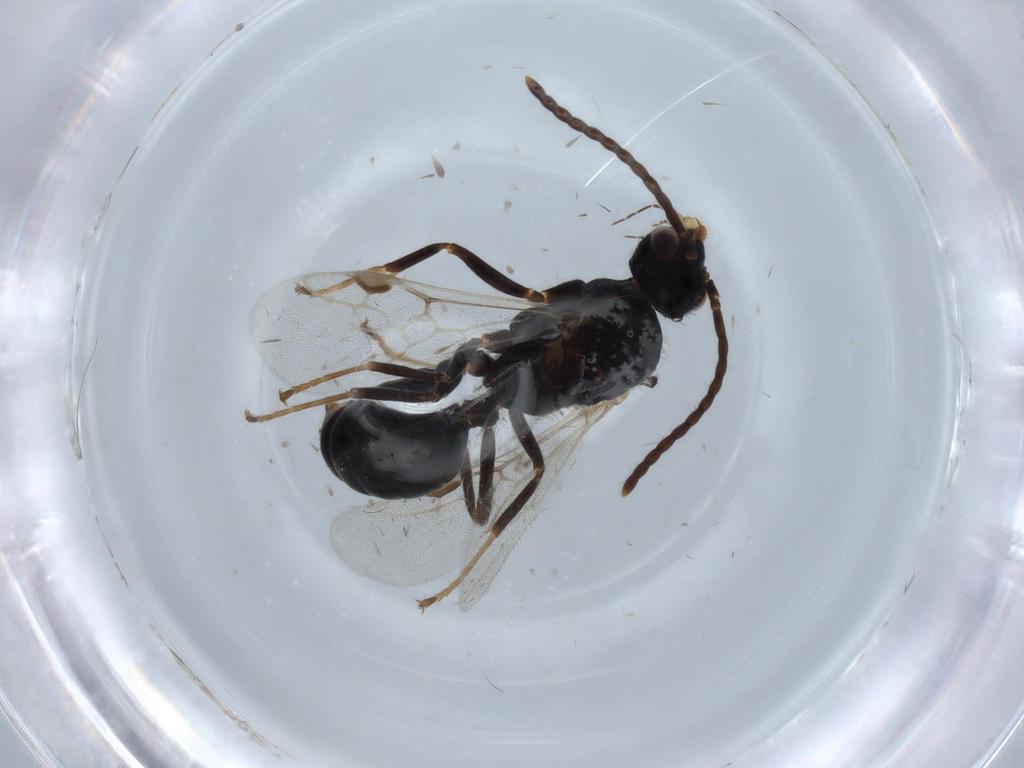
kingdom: Animalia
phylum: Arthropoda
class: Insecta
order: Hymenoptera
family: Formicidae
